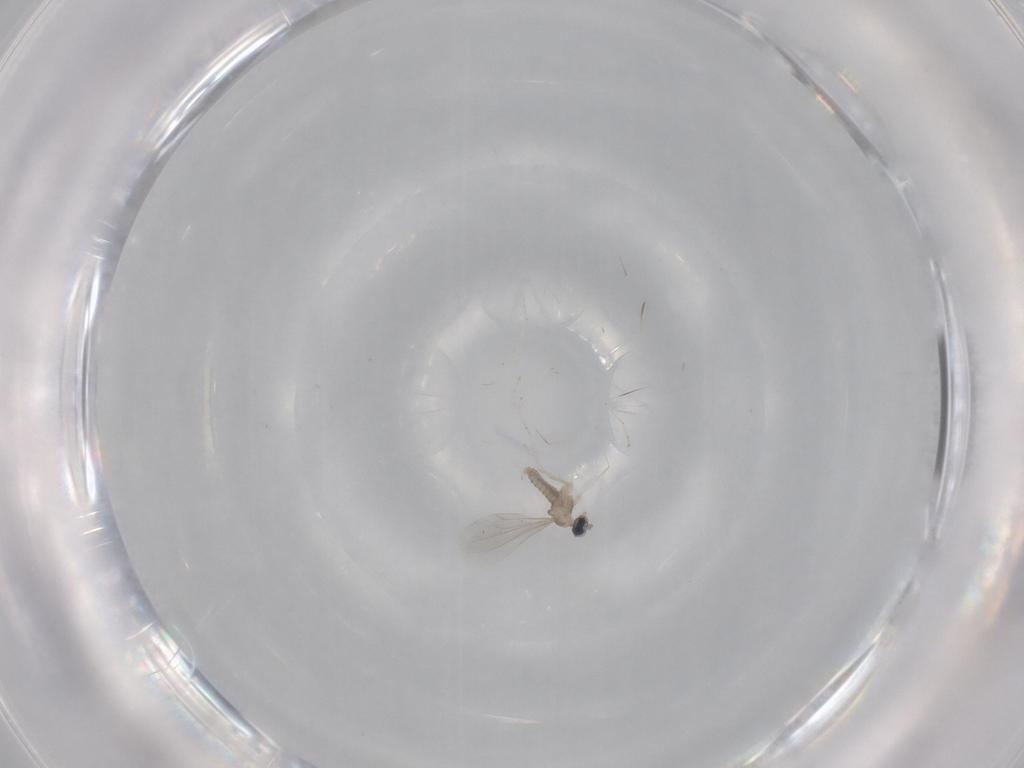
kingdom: Animalia
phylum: Arthropoda
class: Insecta
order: Diptera
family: Cecidomyiidae
